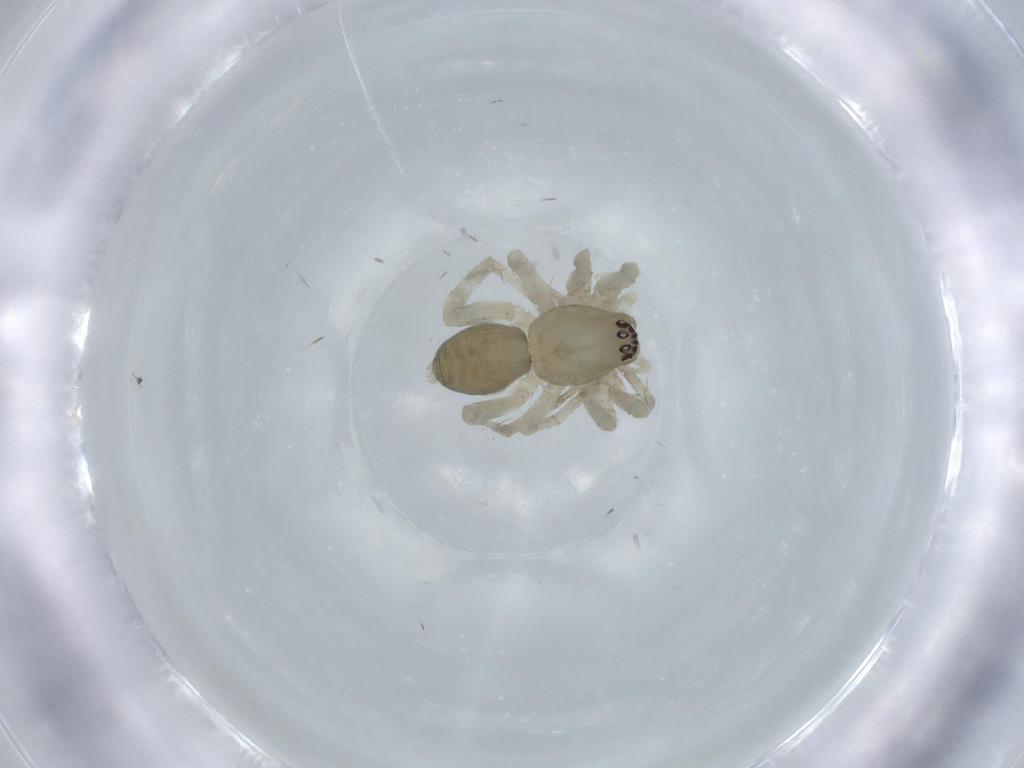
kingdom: Animalia
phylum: Arthropoda
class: Arachnida
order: Araneae
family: Anyphaenidae
